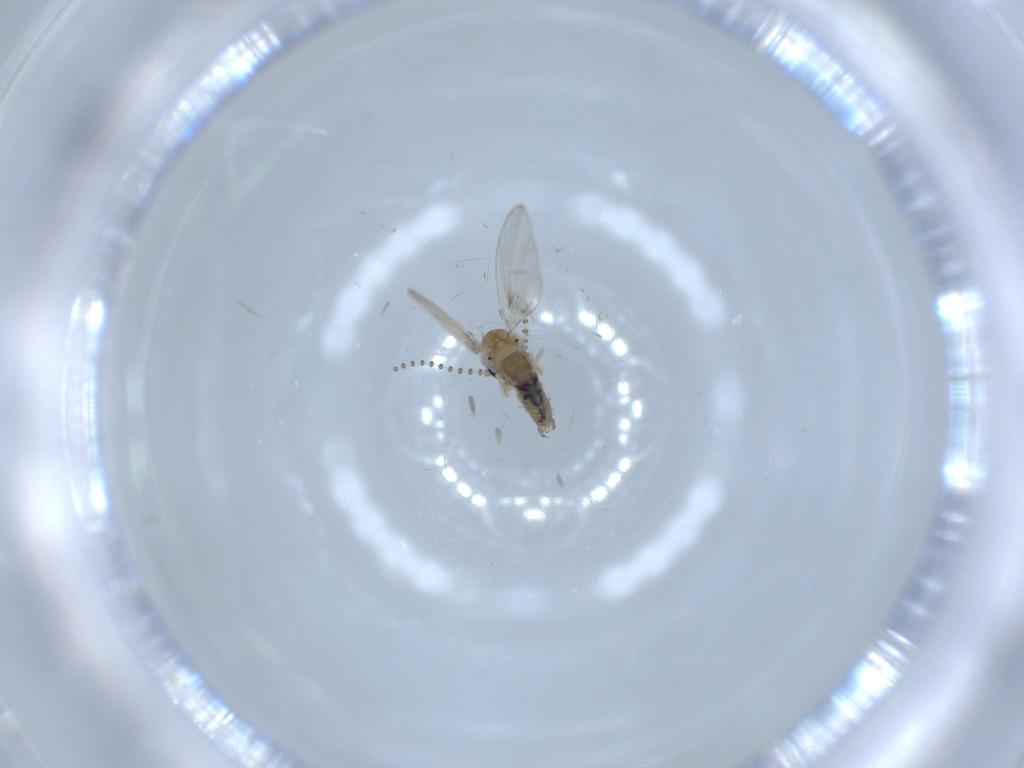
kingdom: Animalia
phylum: Arthropoda
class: Insecta
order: Diptera
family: Psychodidae
